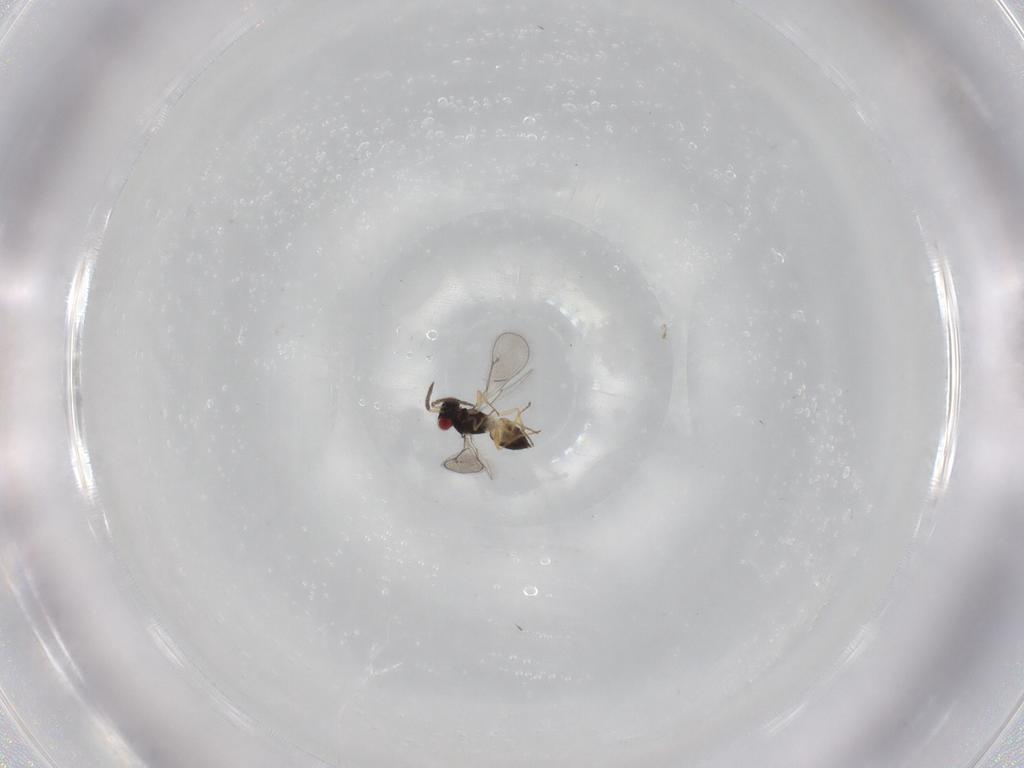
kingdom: Animalia
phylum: Arthropoda
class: Insecta
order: Hymenoptera
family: Eulophidae
